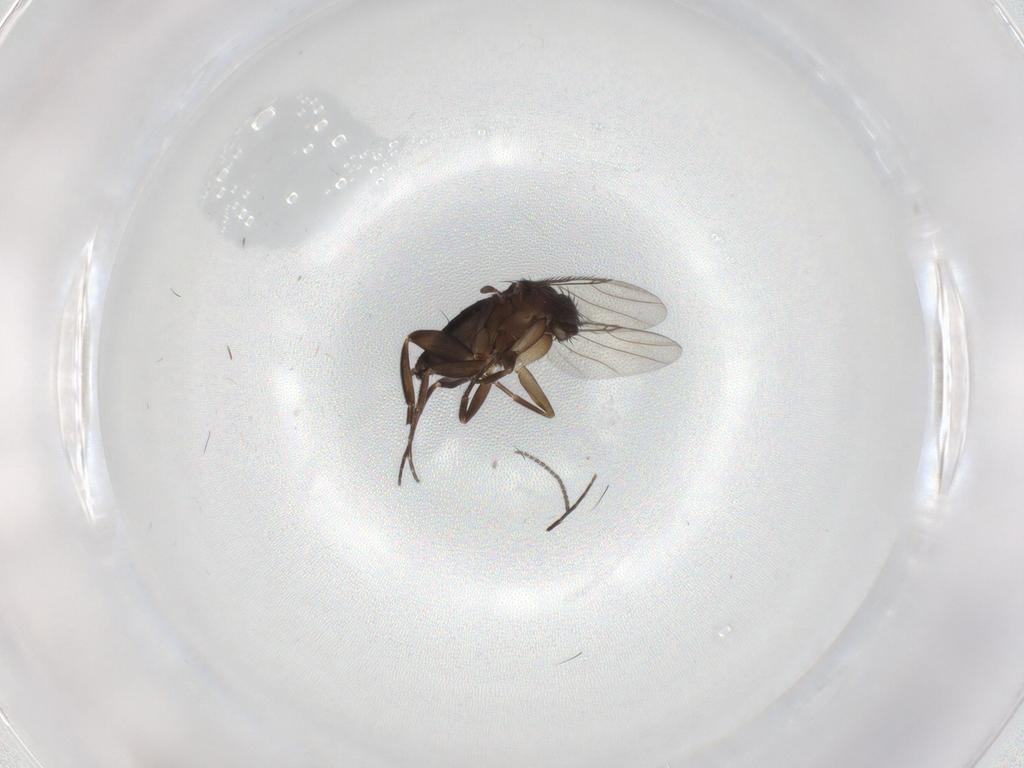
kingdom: Animalia
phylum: Arthropoda
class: Insecta
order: Diptera
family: Phoridae
